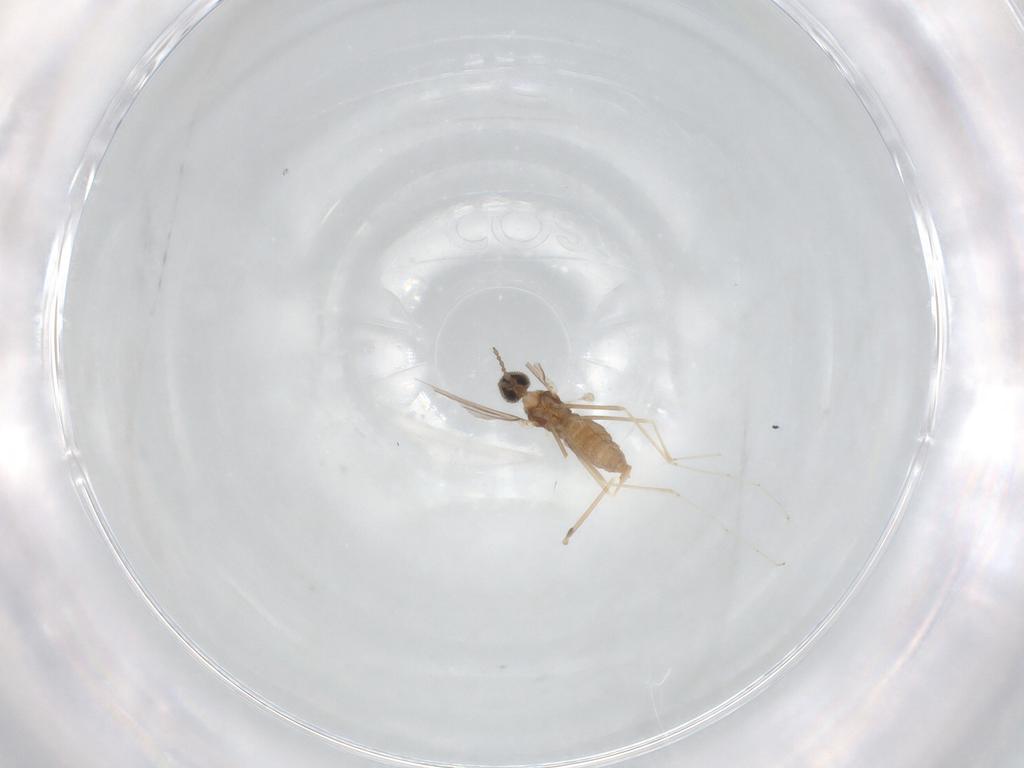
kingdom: Animalia
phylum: Arthropoda
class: Insecta
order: Diptera
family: Cecidomyiidae
